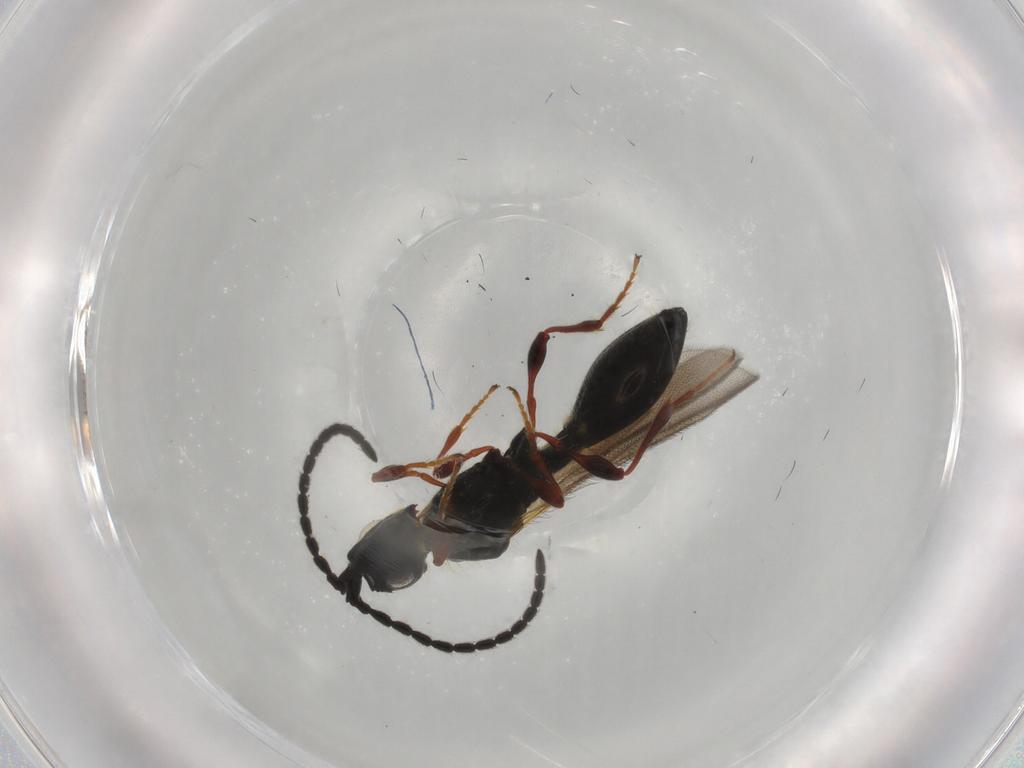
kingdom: Animalia
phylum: Arthropoda
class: Insecta
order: Hymenoptera
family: Diapriidae
